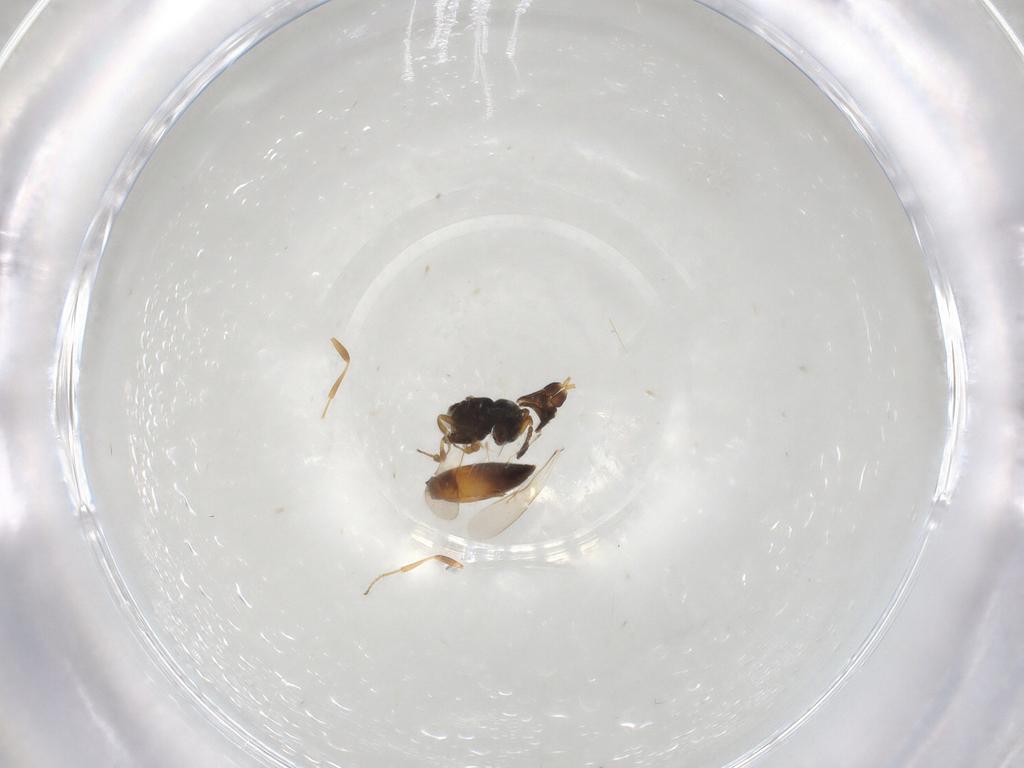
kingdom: Animalia
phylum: Arthropoda
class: Insecta
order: Hymenoptera
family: Scelionidae
